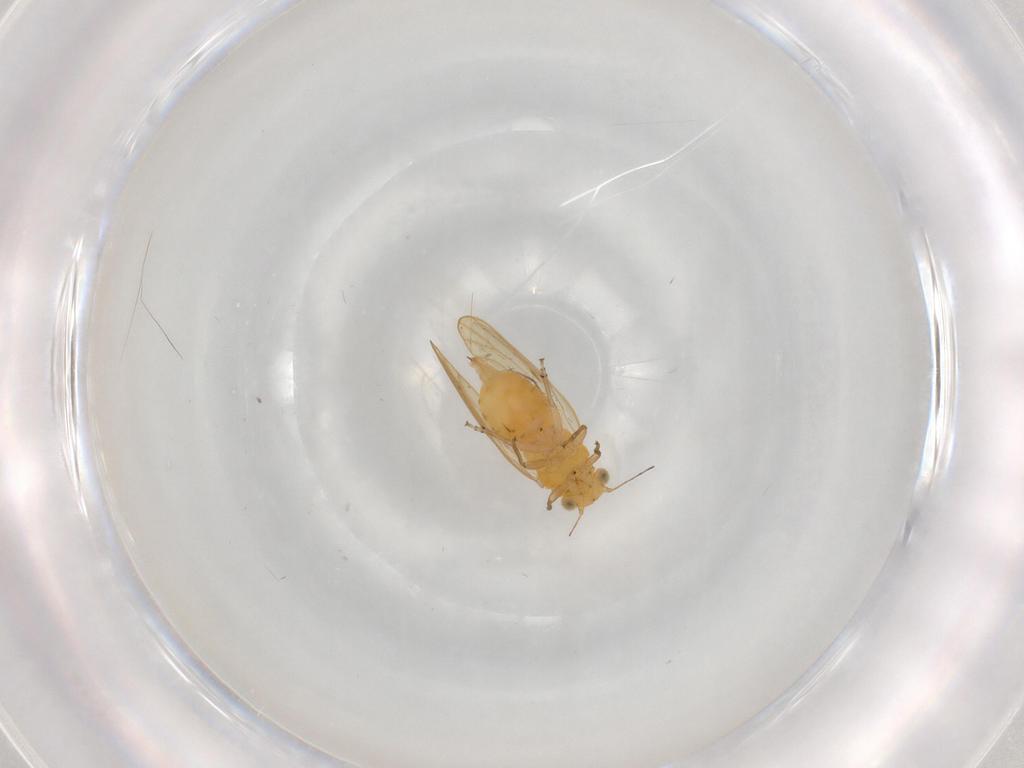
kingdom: Animalia
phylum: Arthropoda
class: Insecta
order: Hemiptera
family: Psyllidae
